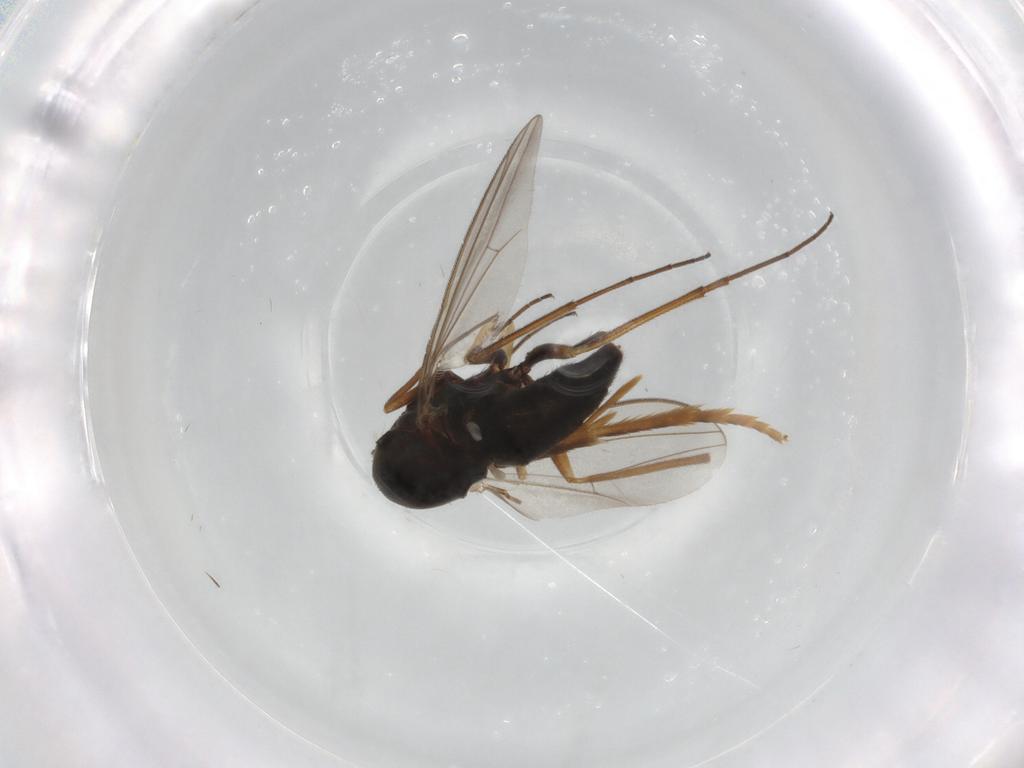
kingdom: Animalia
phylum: Arthropoda
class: Insecta
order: Diptera
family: Dolichopodidae
